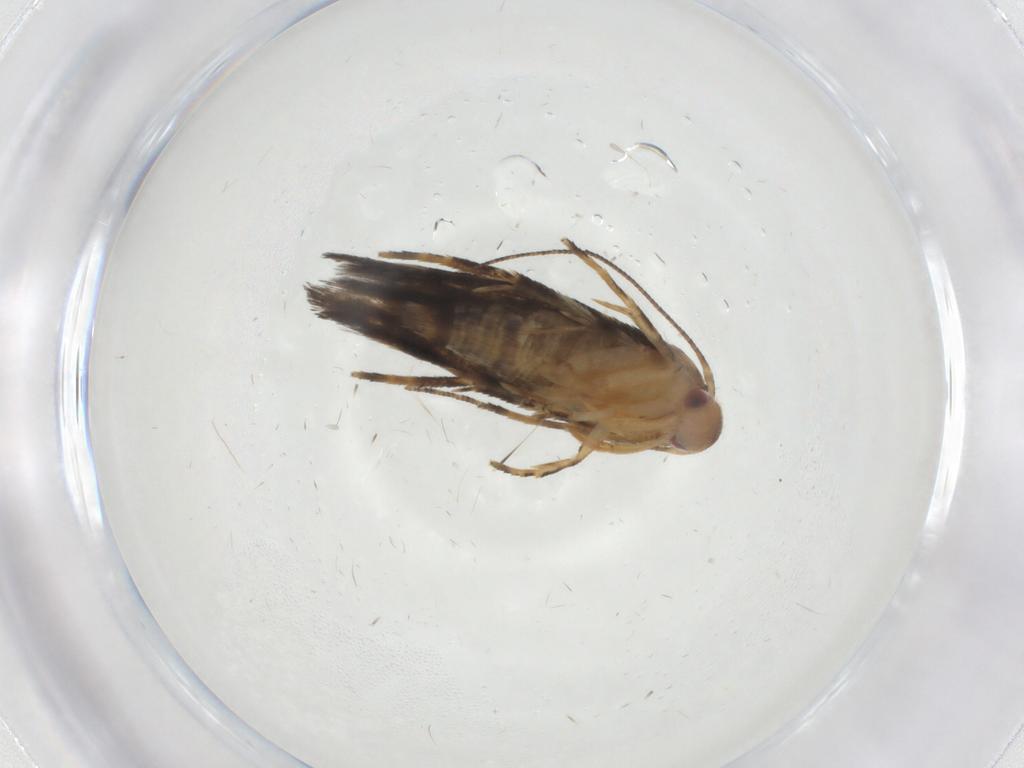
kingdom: Animalia
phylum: Arthropoda
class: Insecta
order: Lepidoptera
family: Momphidae
